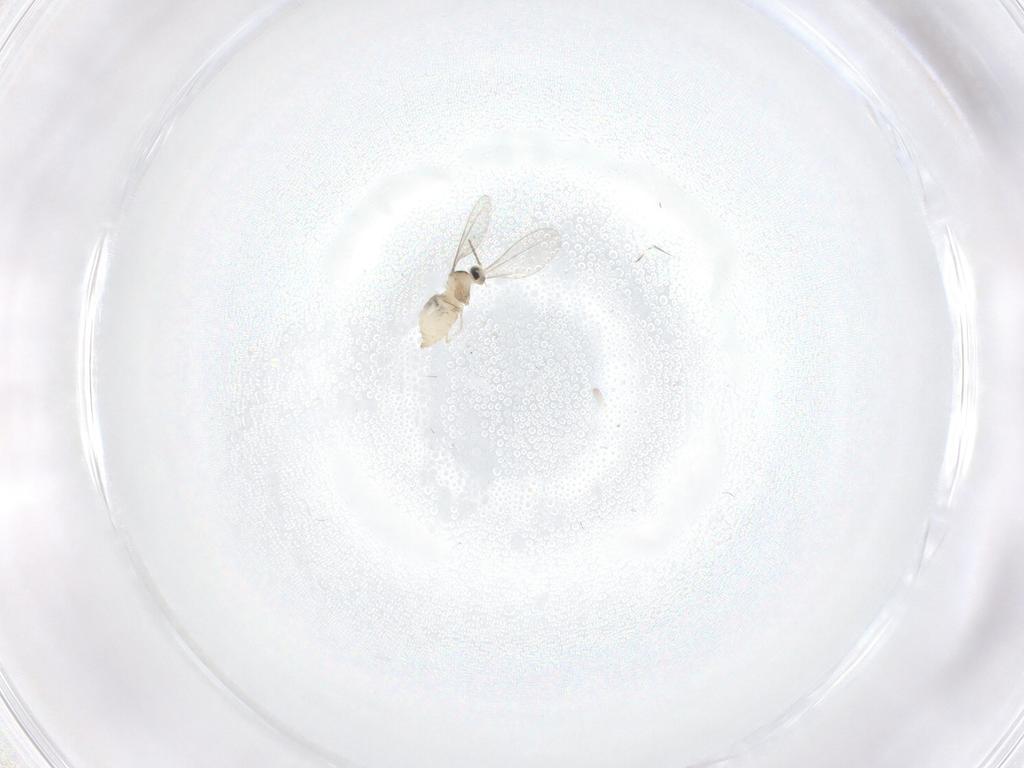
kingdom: Animalia
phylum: Arthropoda
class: Insecta
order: Diptera
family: Cecidomyiidae
